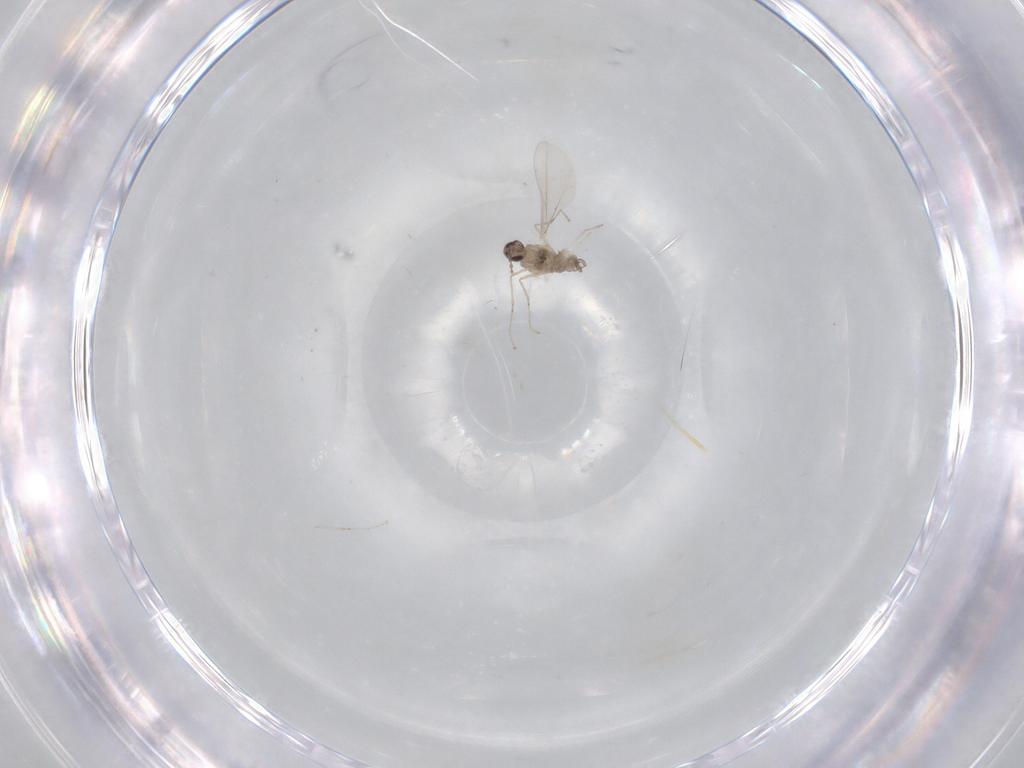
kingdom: Animalia
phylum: Arthropoda
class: Insecta
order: Diptera
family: Cecidomyiidae
